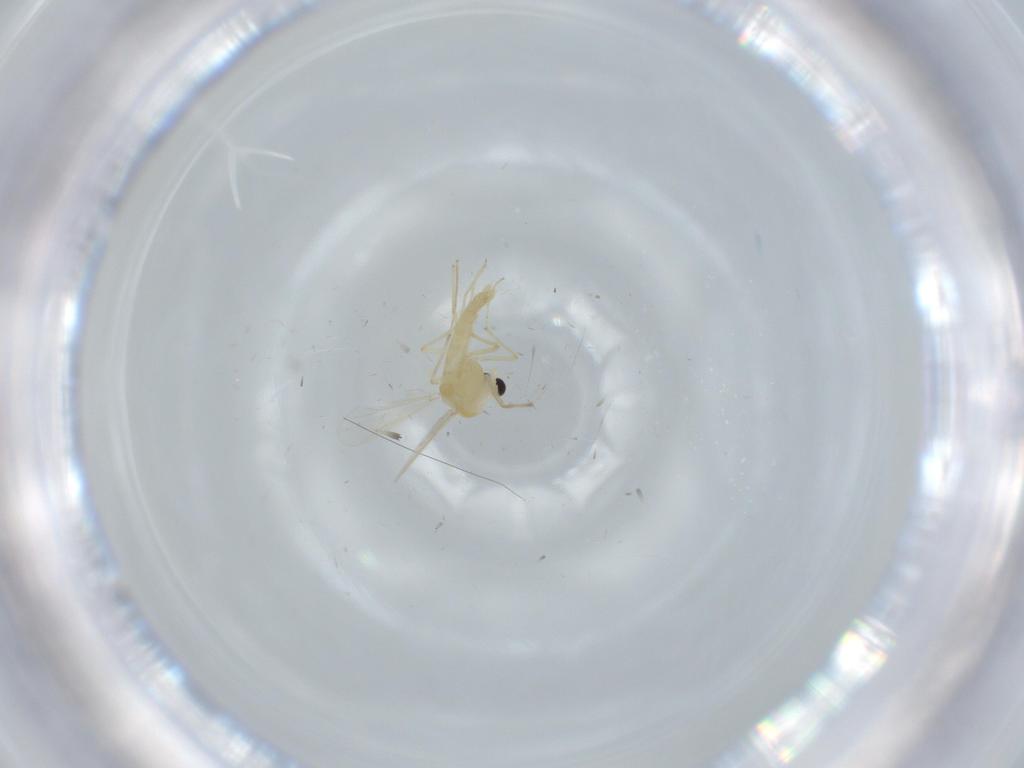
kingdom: Animalia
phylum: Arthropoda
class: Insecta
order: Diptera
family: Chironomidae
